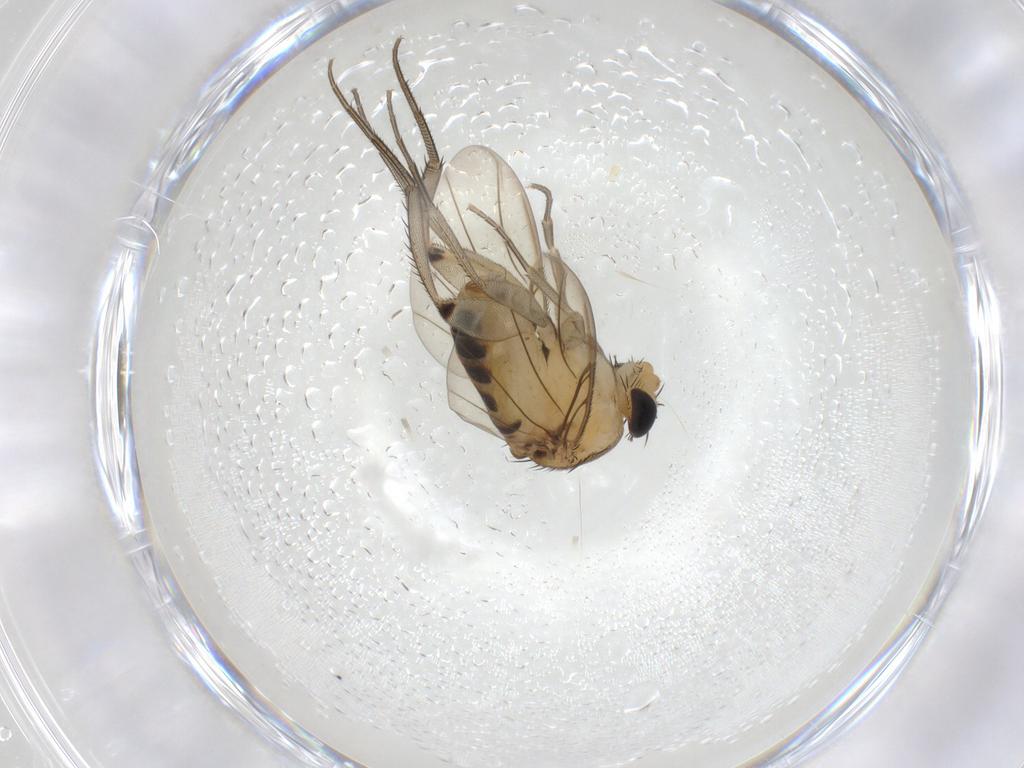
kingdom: Animalia
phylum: Arthropoda
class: Insecta
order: Diptera
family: Phoridae
